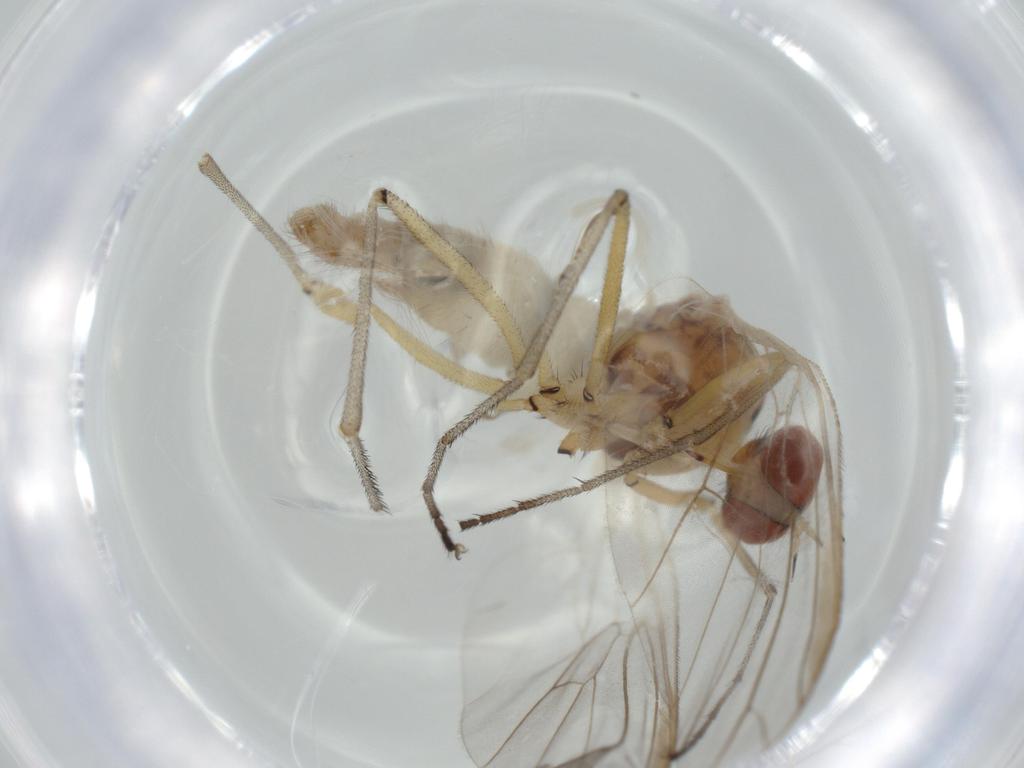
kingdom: Animalia
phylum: Arthropoda
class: Insecta
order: Diptera
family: Empididae
